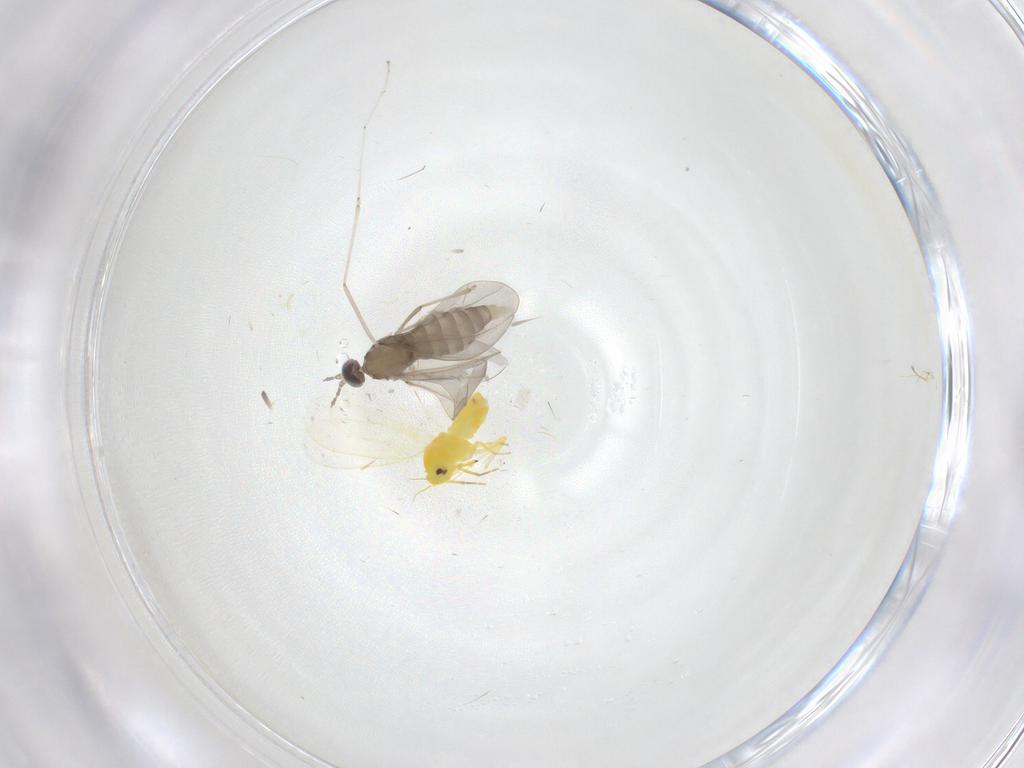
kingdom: Animalia
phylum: Arthropoda
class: Insecta
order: Diptera
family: Cecidomyiidae
